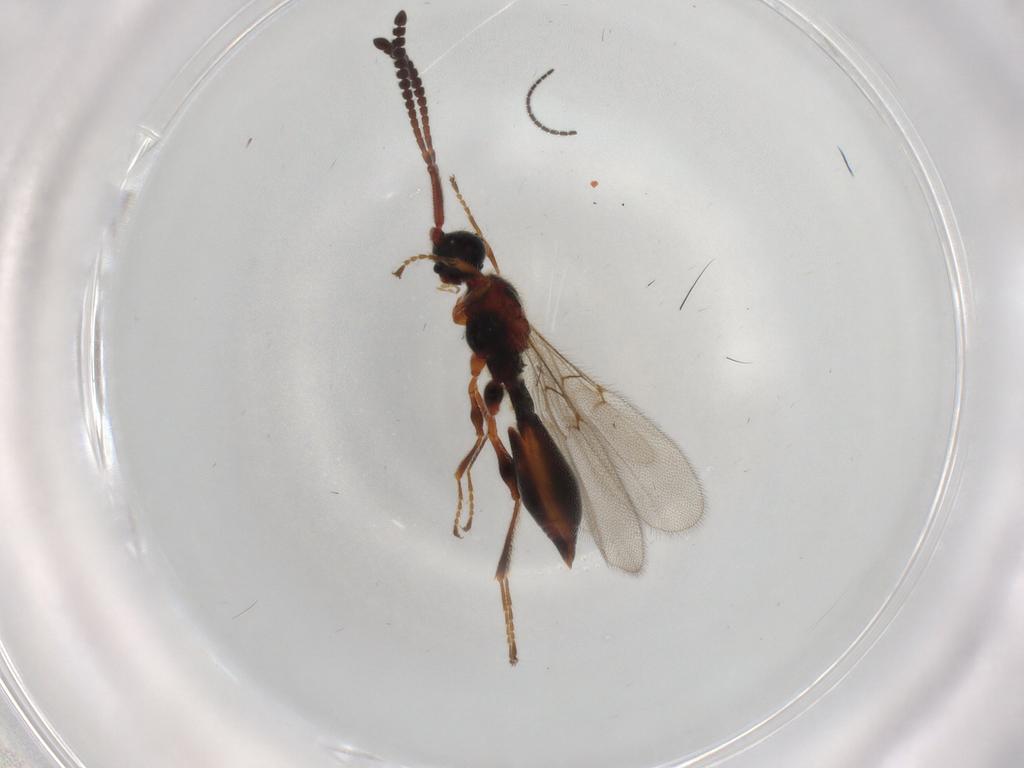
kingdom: Animalia
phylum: Arthropoda
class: Insecta
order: Hymenoptera
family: Diapriidae
